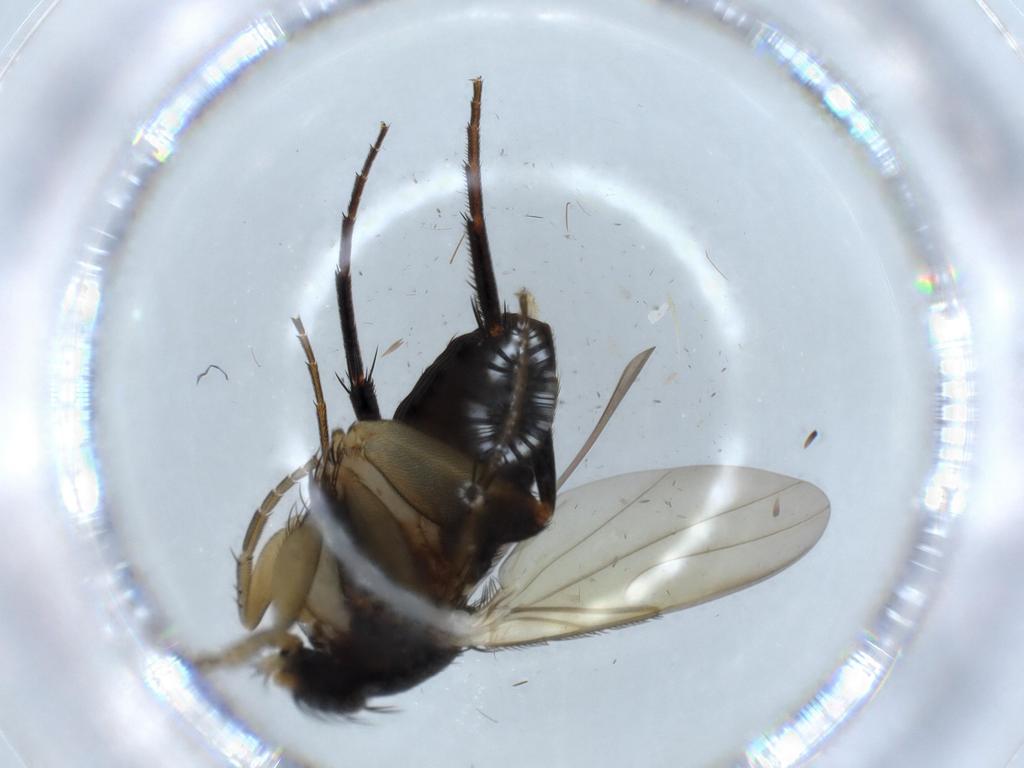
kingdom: Animalia
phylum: Arthropoda
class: Insecta
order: Diptera
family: Phoridae
